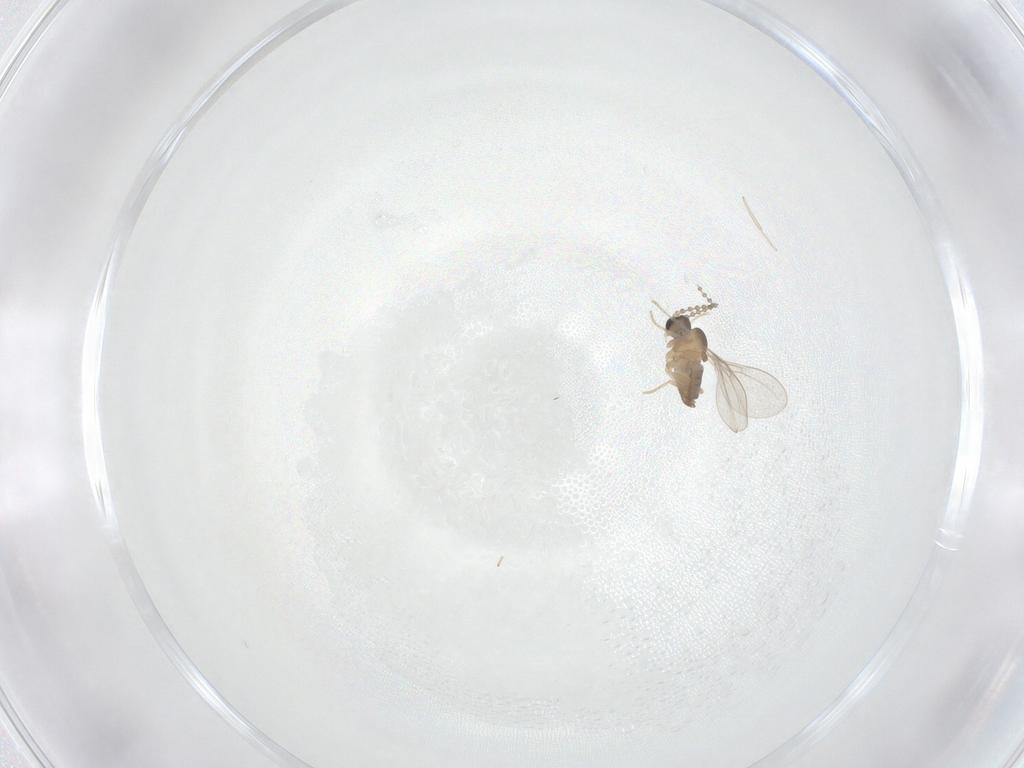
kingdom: Animalia
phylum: Arthropoda
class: Insecta
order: Diptera
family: Cecidomyiidae
